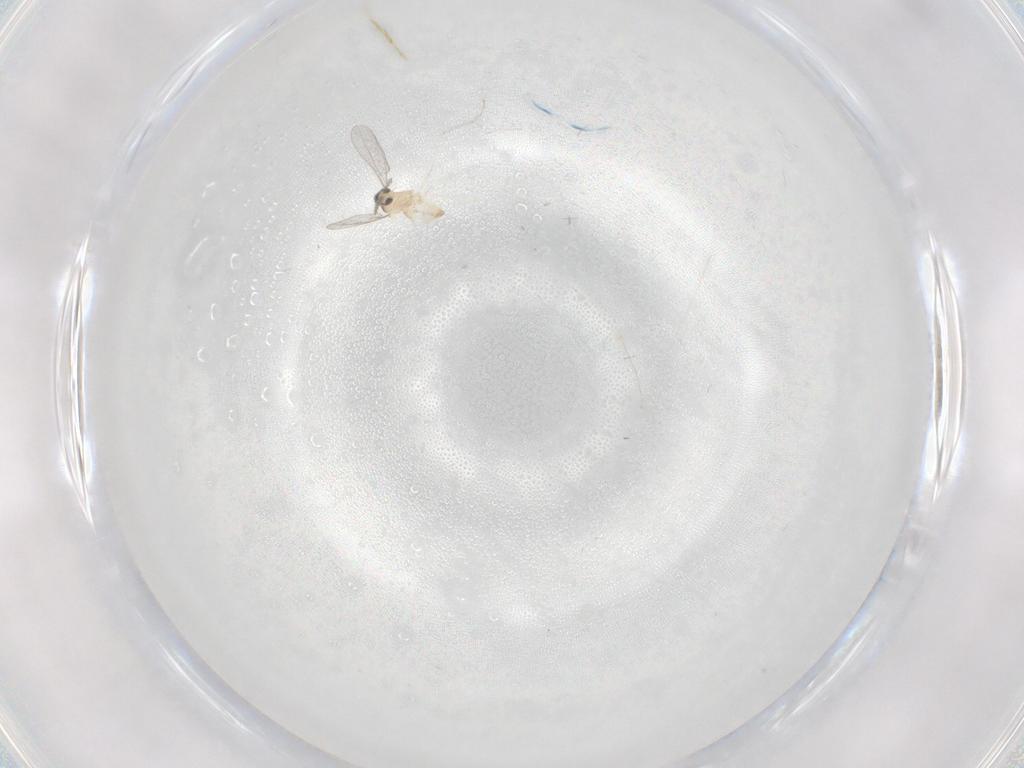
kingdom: Animalia
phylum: Arthropoda
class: Insecta
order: Diptera
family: Cecidomyiidae
